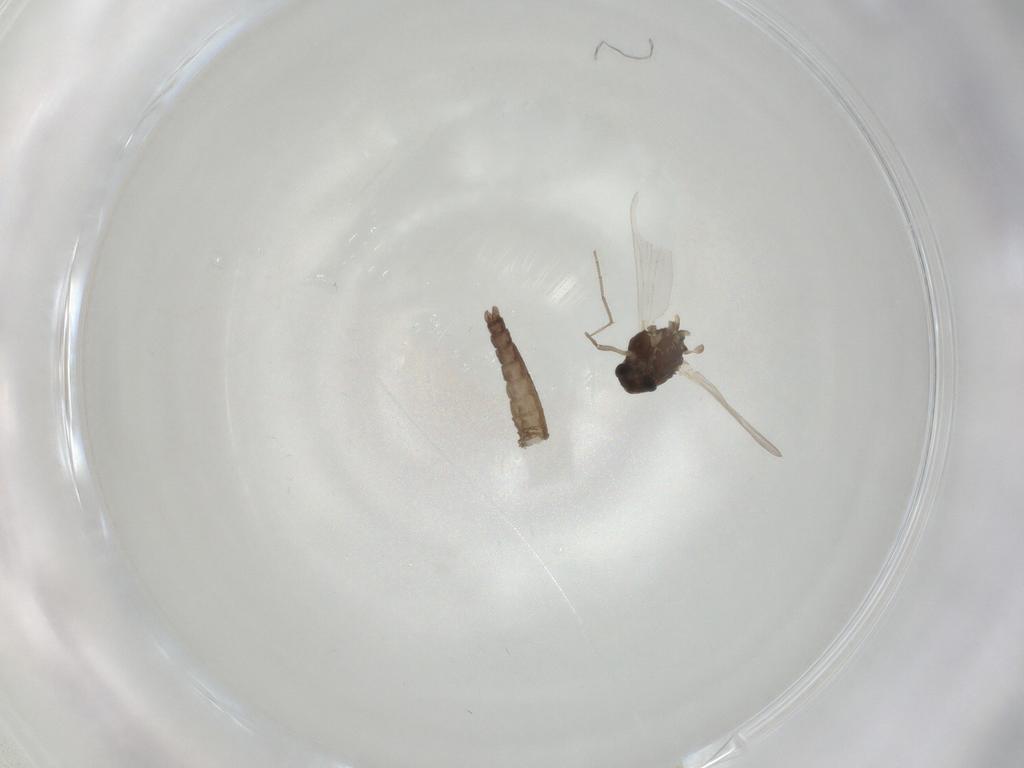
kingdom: Animalia
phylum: Arthropoda
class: Insecta
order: Diptera
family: Chironomidae
